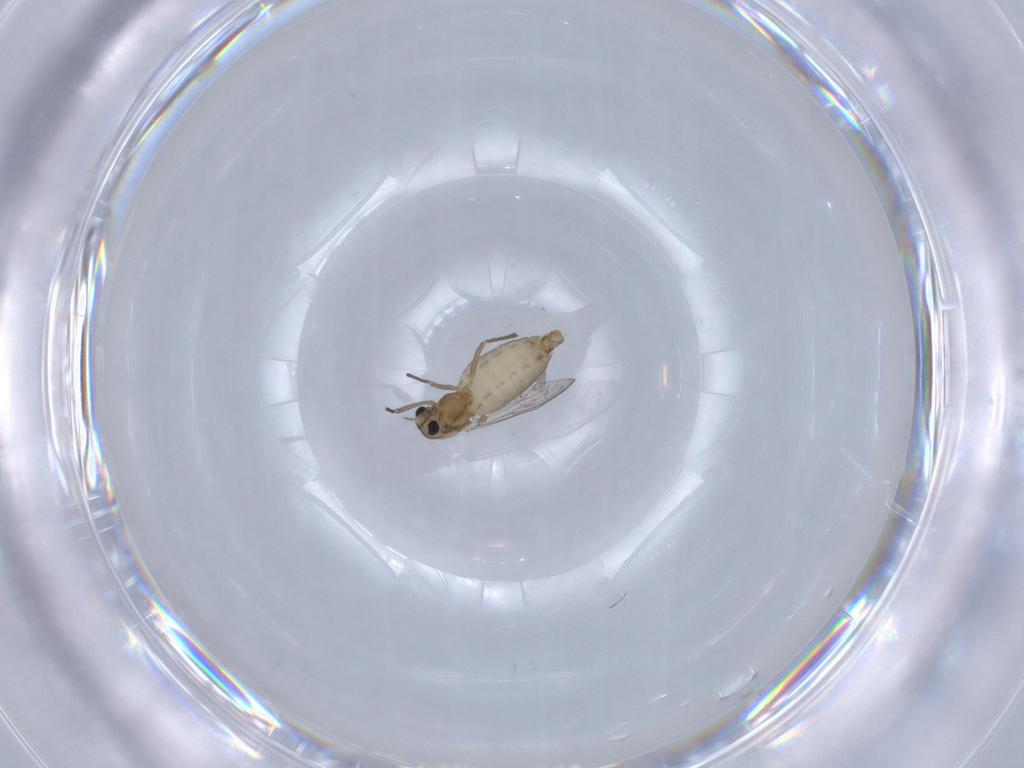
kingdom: Animalia
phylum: Arthropoda
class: Insecta
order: Diptera
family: Chironomidae
